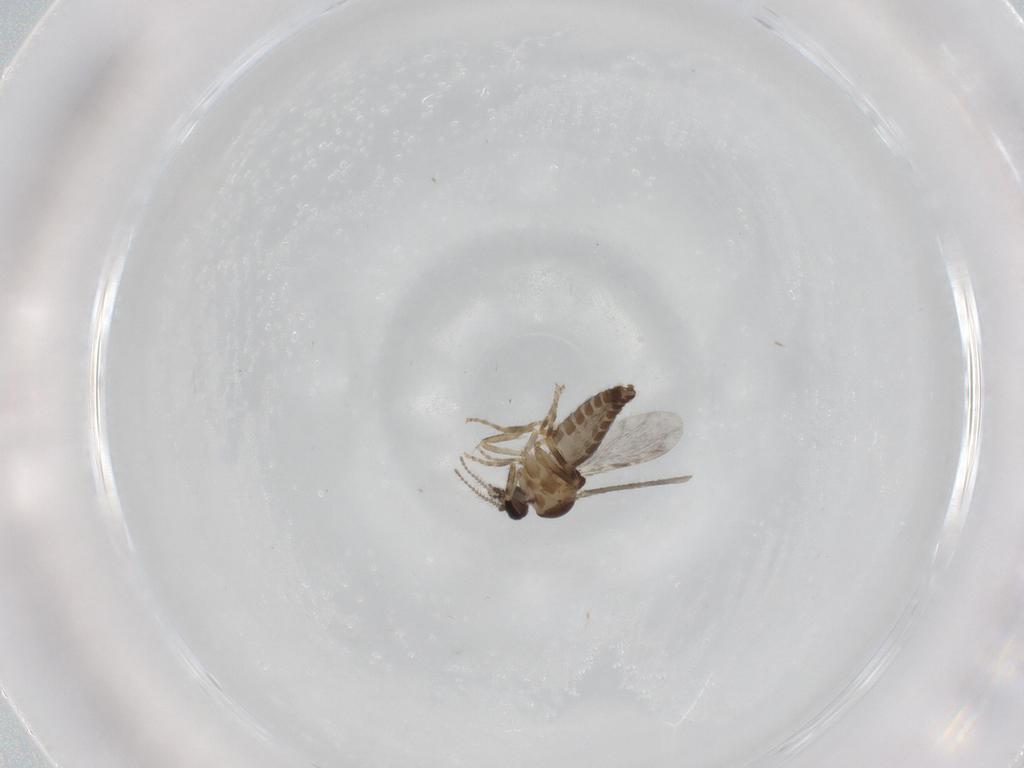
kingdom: Animalia
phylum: Arthropoda
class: Insecta
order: Diptera
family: Ceratopogonidae
